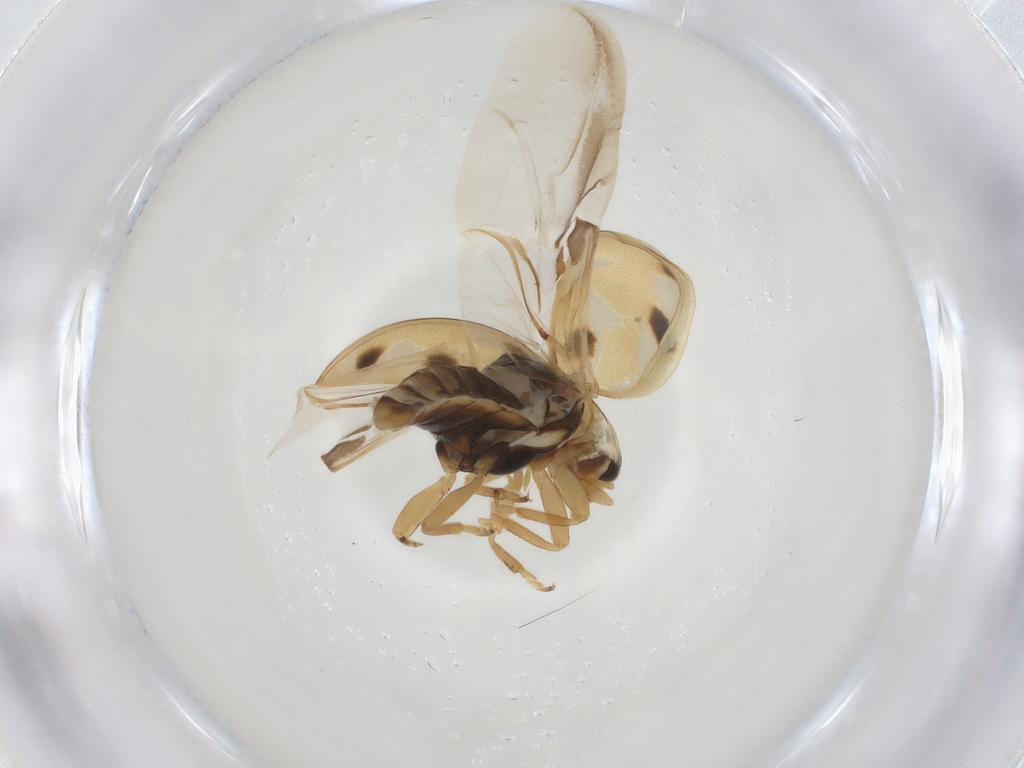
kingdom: Animalia
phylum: Arthropoda
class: Insecta
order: Coleoptera
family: Coccinellidae
